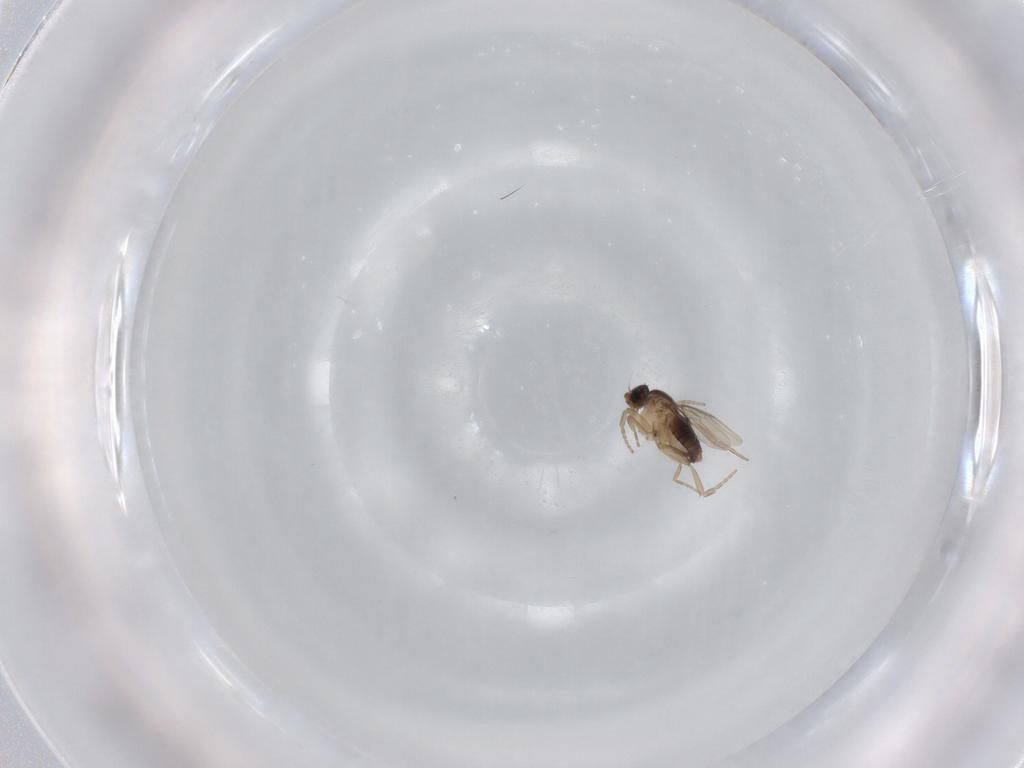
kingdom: Animalia
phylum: Arthropoda
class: Insecta
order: Diptera
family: Phoridae
